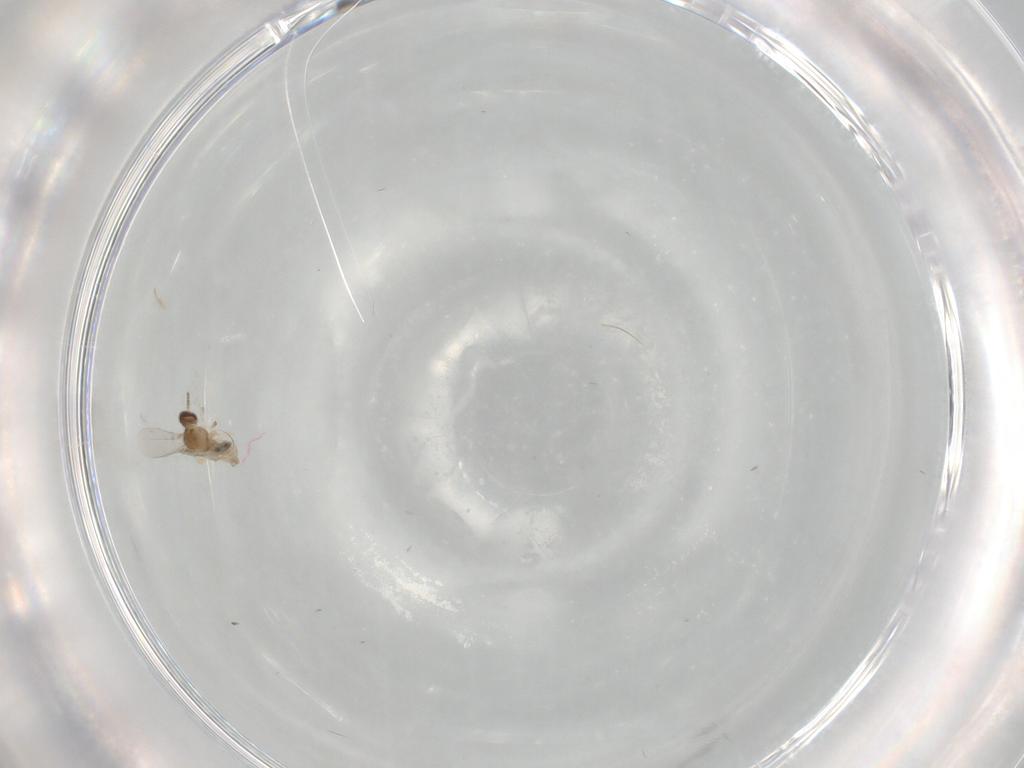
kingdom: Animalia
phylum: Arthropoda
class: Insecta
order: Diptera
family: Cecidomyiidae
